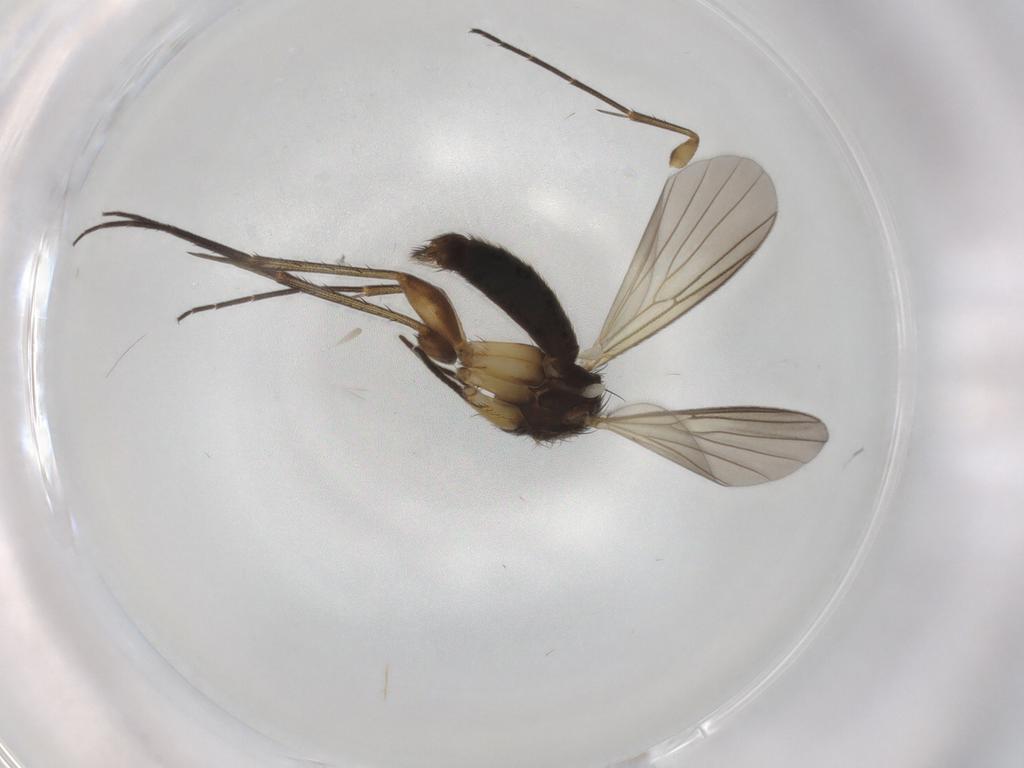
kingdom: Animalia
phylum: Arthropoda
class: Insecta
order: Diptera
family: Mycetophilidae
